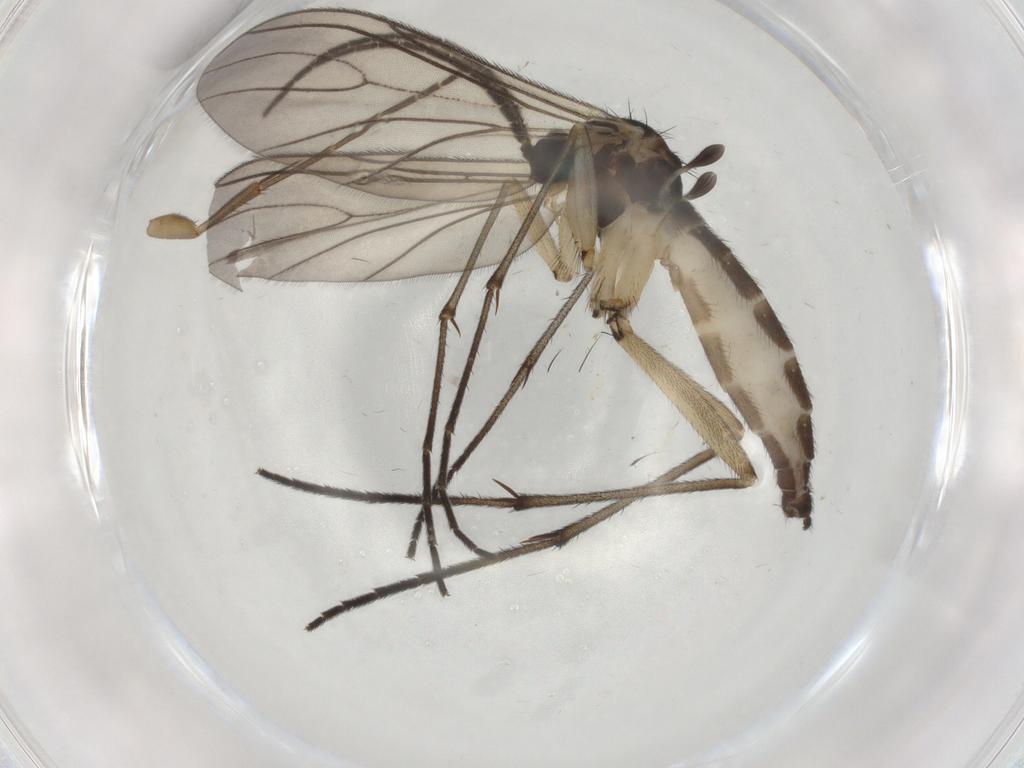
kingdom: Animalia
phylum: Arthropoda
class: Insecta
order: Diptera
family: Sciaridae
